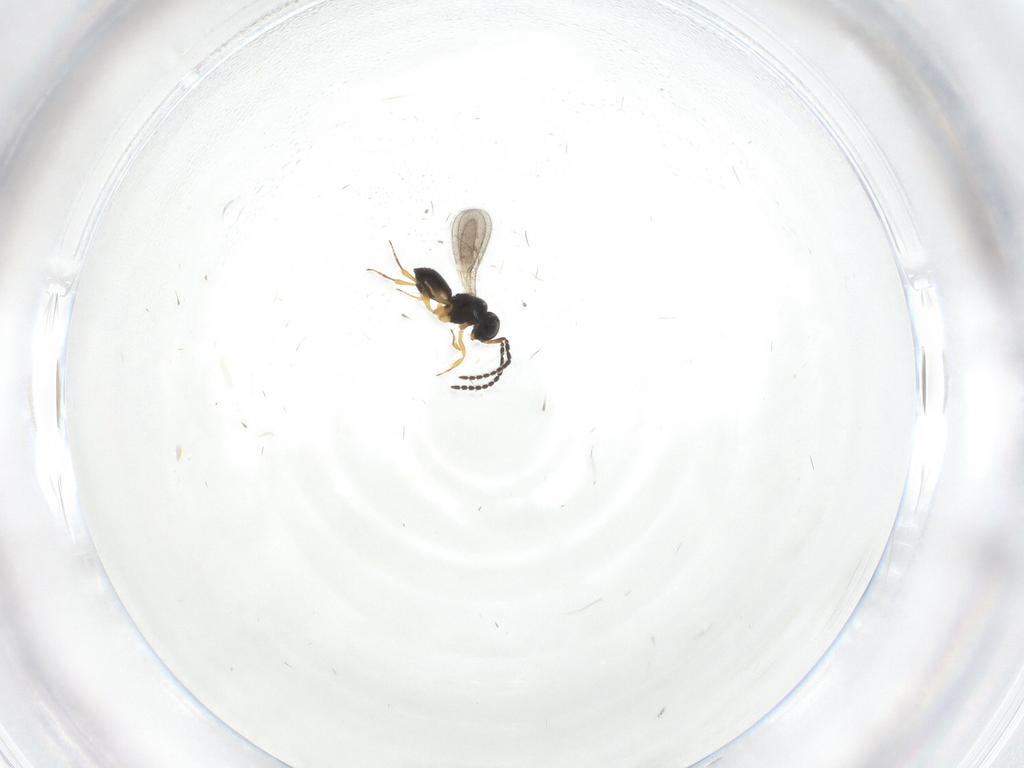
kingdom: Animalia
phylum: Arthropoda
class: Insecta
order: Hymenoptera
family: Scelionidae
